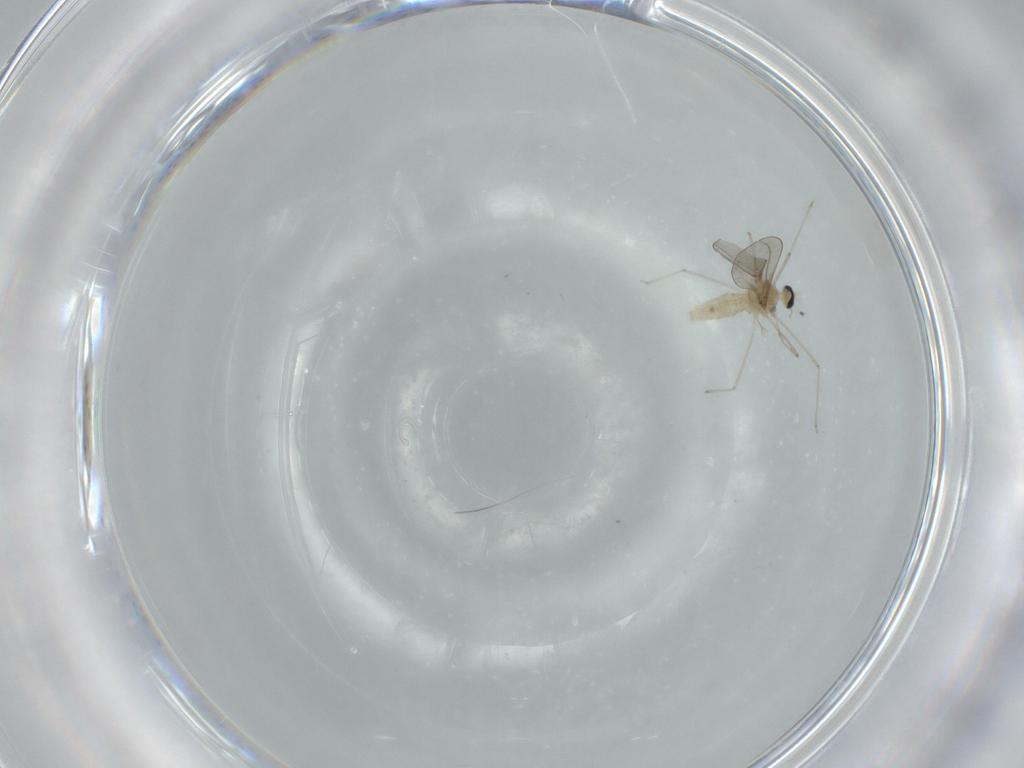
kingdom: Animalia
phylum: Arthropoda
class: Insecta
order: Diptera
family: Cecidomyiidae
